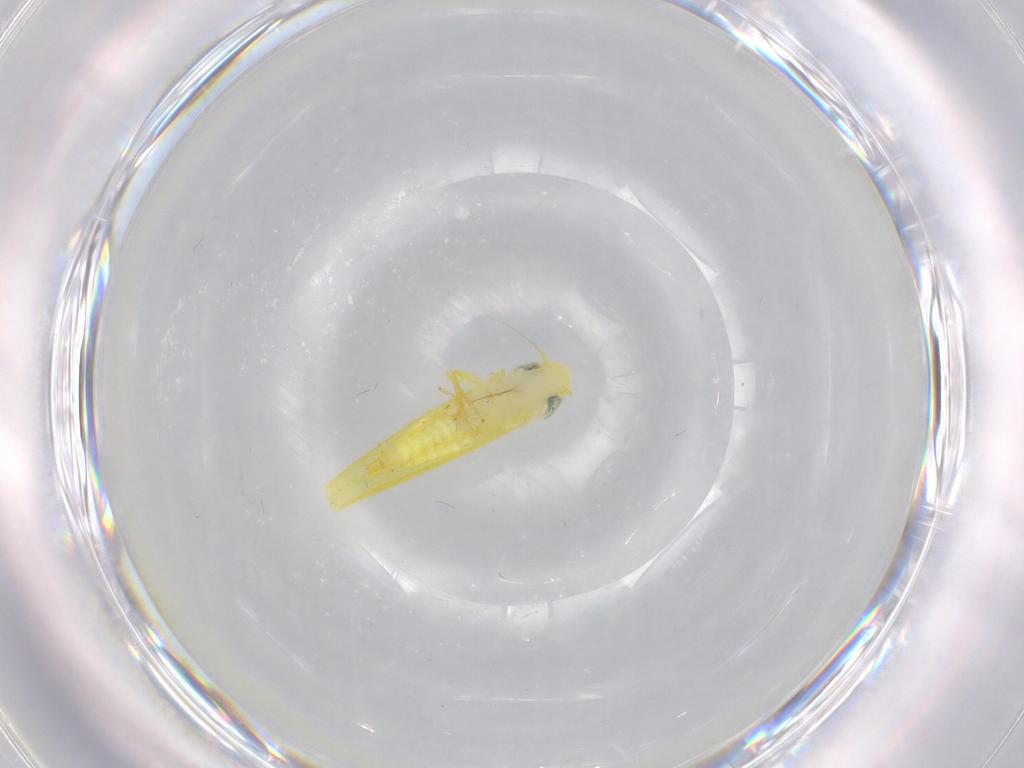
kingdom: Animalia
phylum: Arthropoda
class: Insecta
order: Hemiptera
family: Cicadellidae
